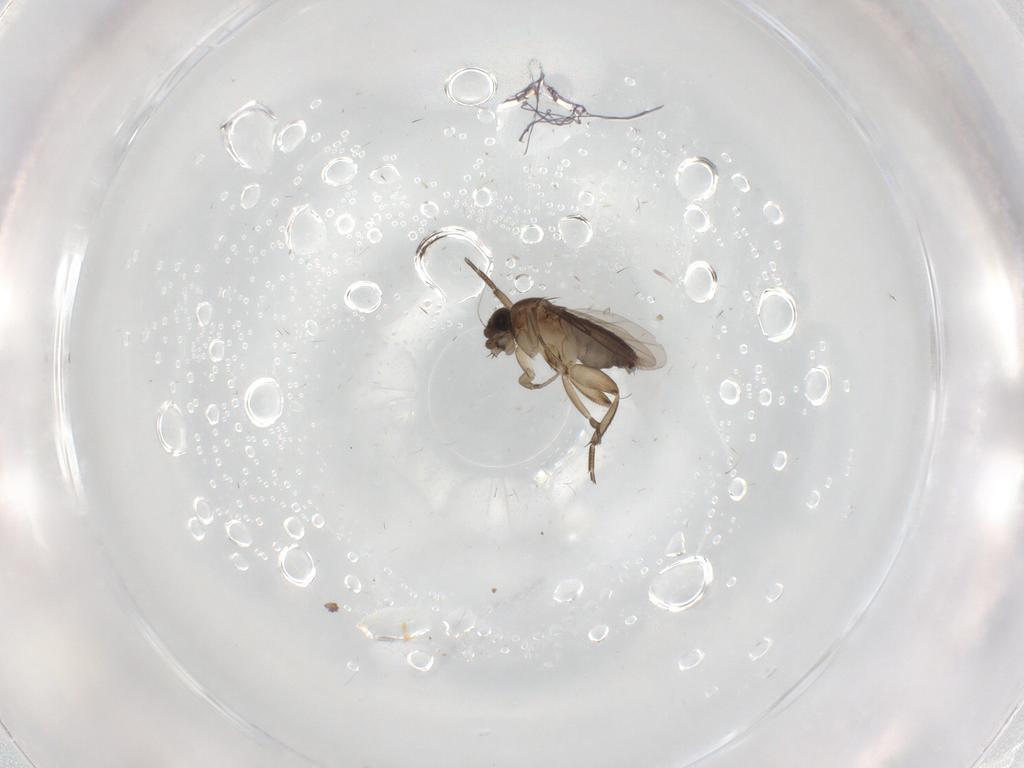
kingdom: Animalia
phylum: Arthropoda
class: Insecta
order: Diptera
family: Phoridae
